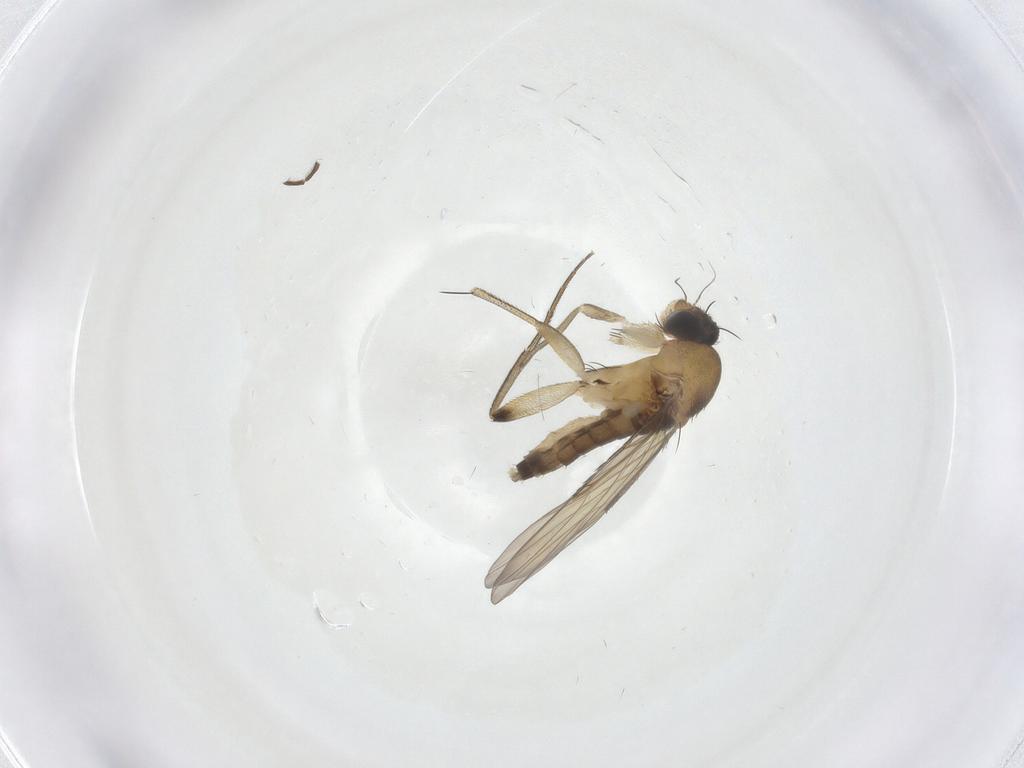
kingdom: Animalia
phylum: Arthropoda
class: Insecta
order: Diptera
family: Phoridae
